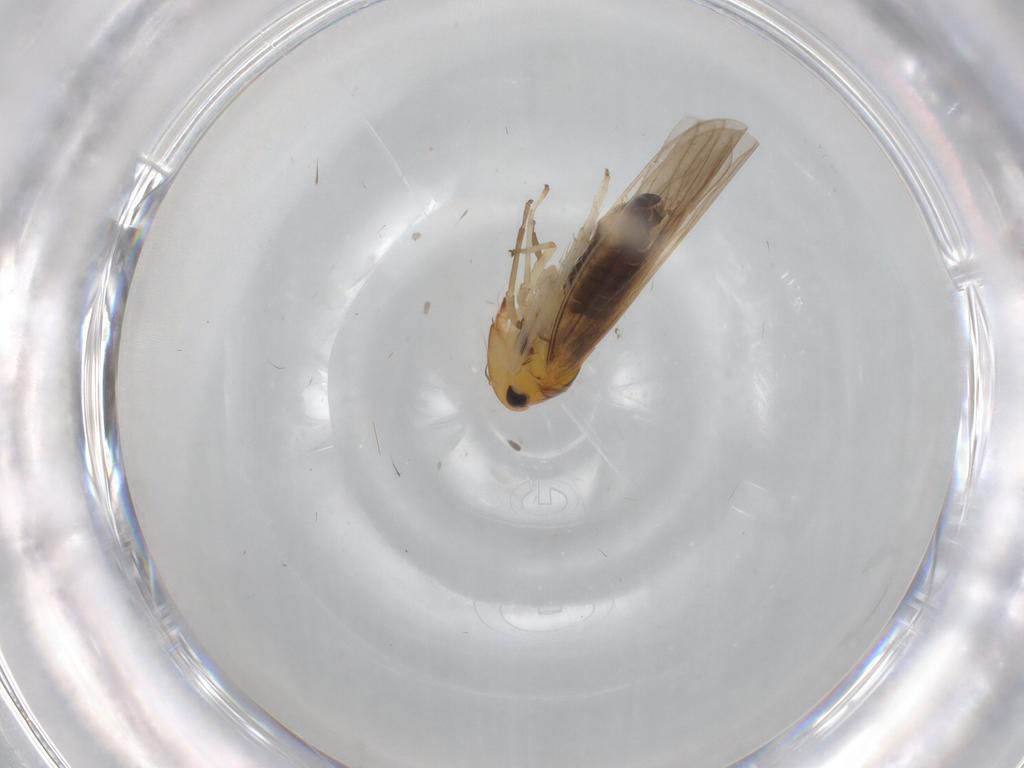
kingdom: Animalia
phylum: Arthropoda
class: Insecta
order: Hemiptera
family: Cicadellidae
